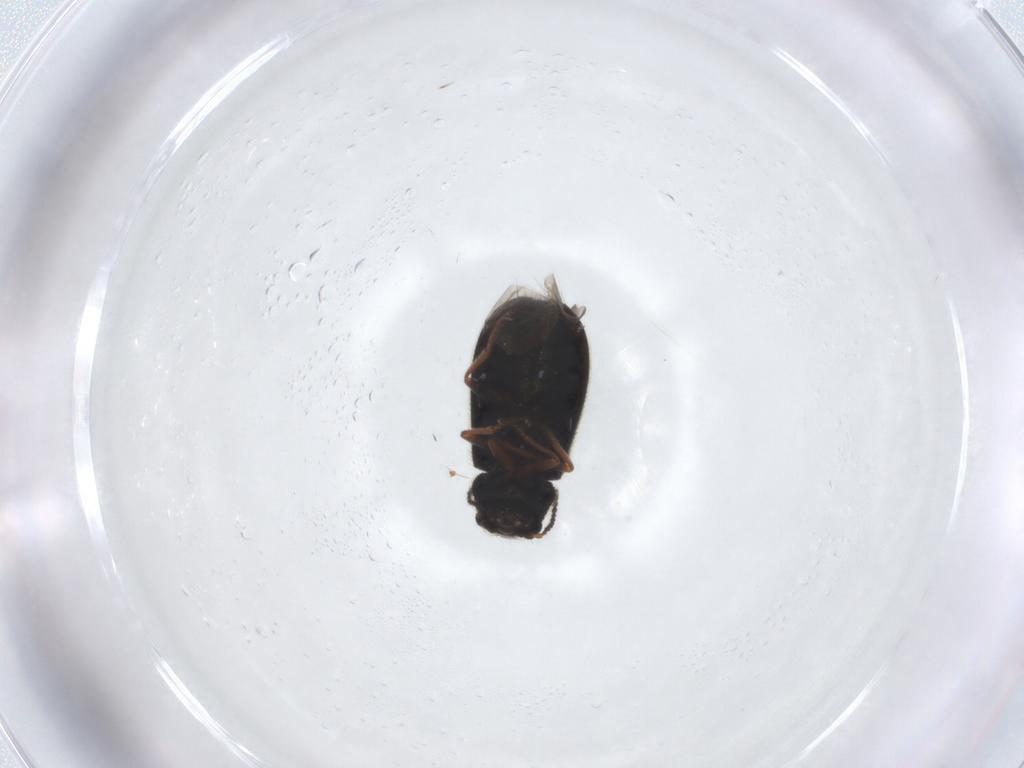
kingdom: Animalia
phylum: Arthropoda
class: Insecta
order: Coleoptera
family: Melyridae
